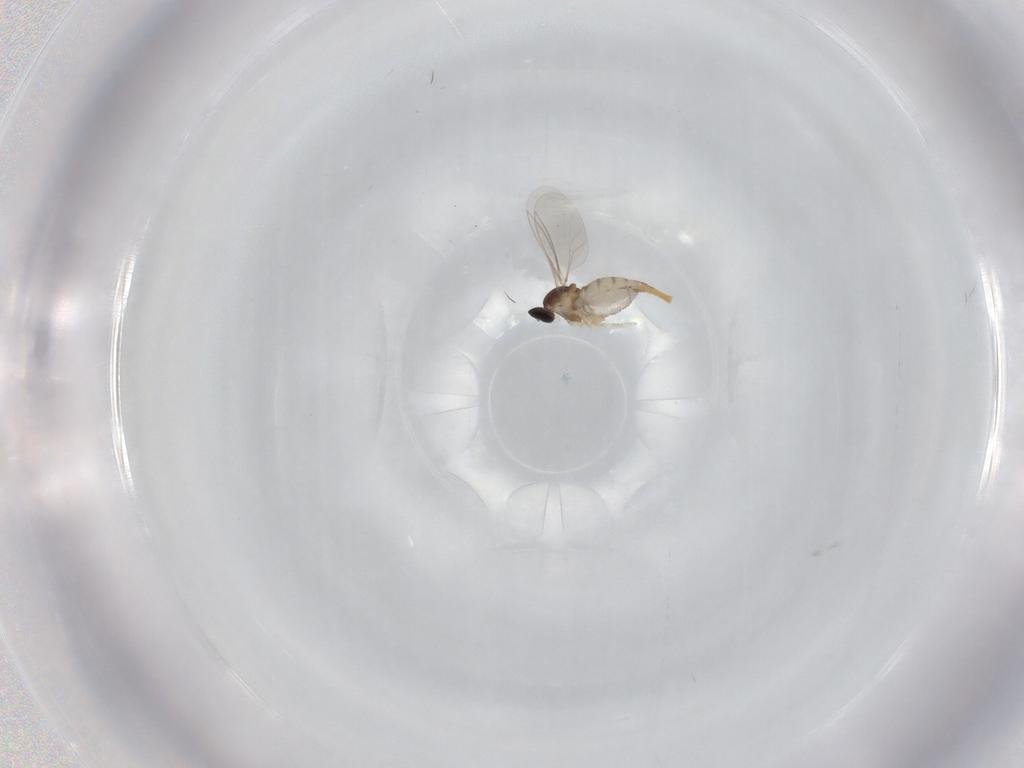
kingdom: Animalia
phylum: Arthropoda
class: Insecta
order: Diptera
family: Cecidomyiidae
